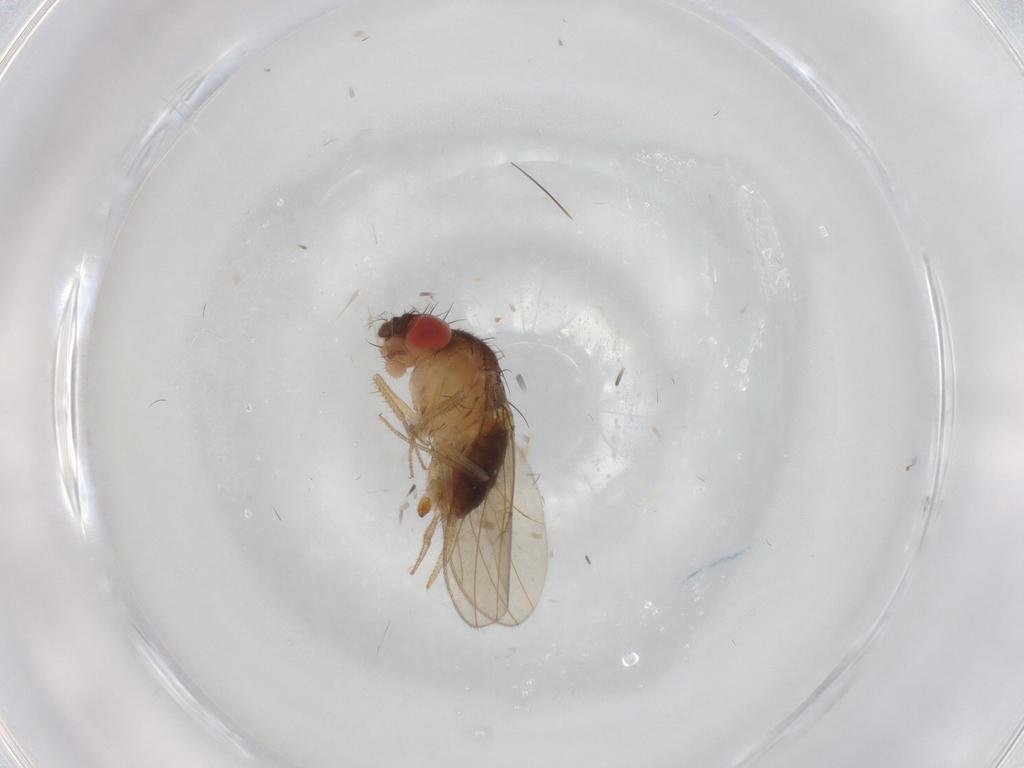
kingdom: Animalia
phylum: Arthropoda
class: Insecta
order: Diptera
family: Drosophilidae
